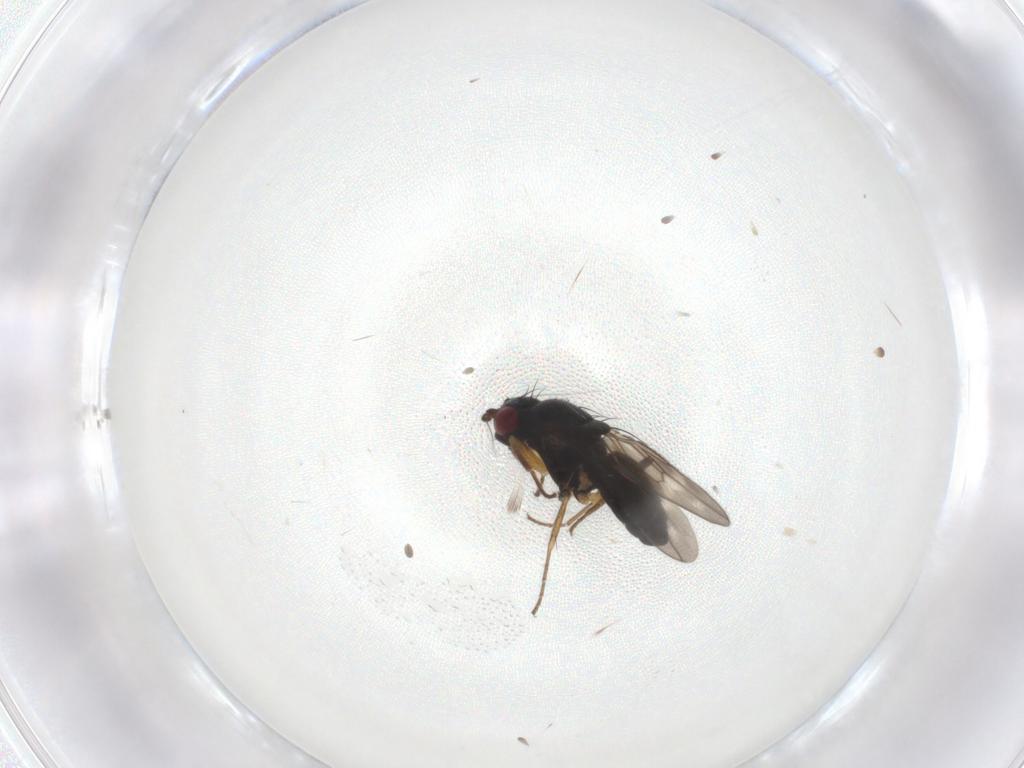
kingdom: Animalia
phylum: Arthropoda
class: Insecta
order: Diptera
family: Sphaeroceridae
